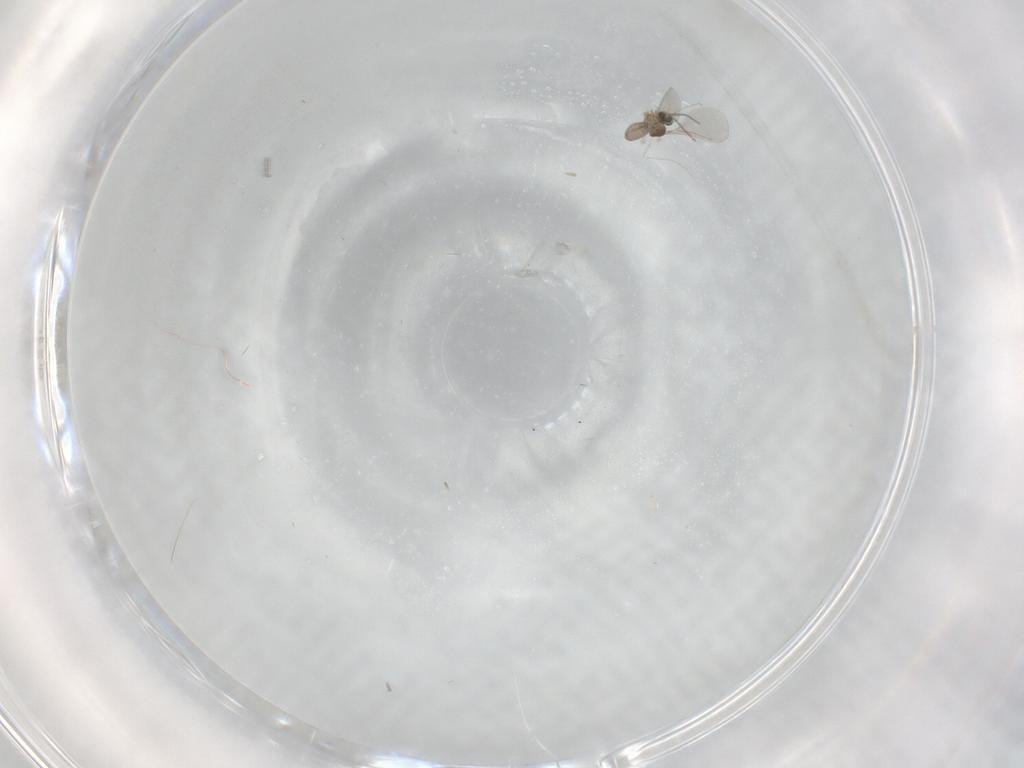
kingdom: Animalia
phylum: Arthropoda
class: Insecta
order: Diptera
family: Cecidomyiidae
